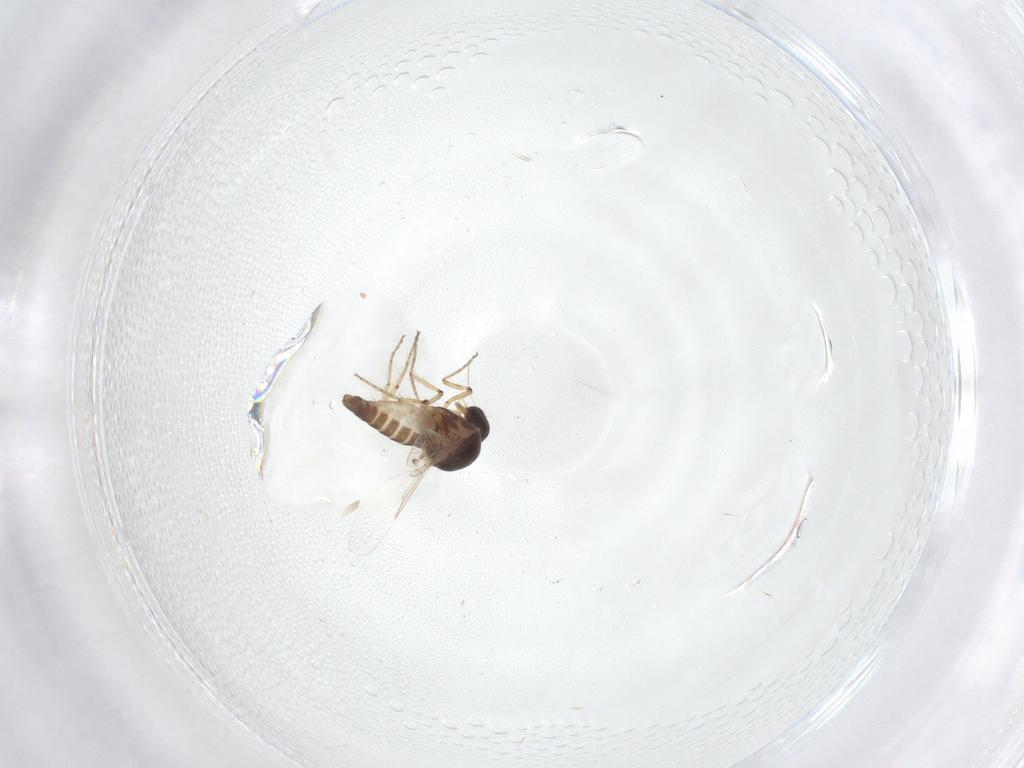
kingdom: Animalia
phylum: Arthropoda
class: Insecta
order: Diptera
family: Ceratopogonidae
